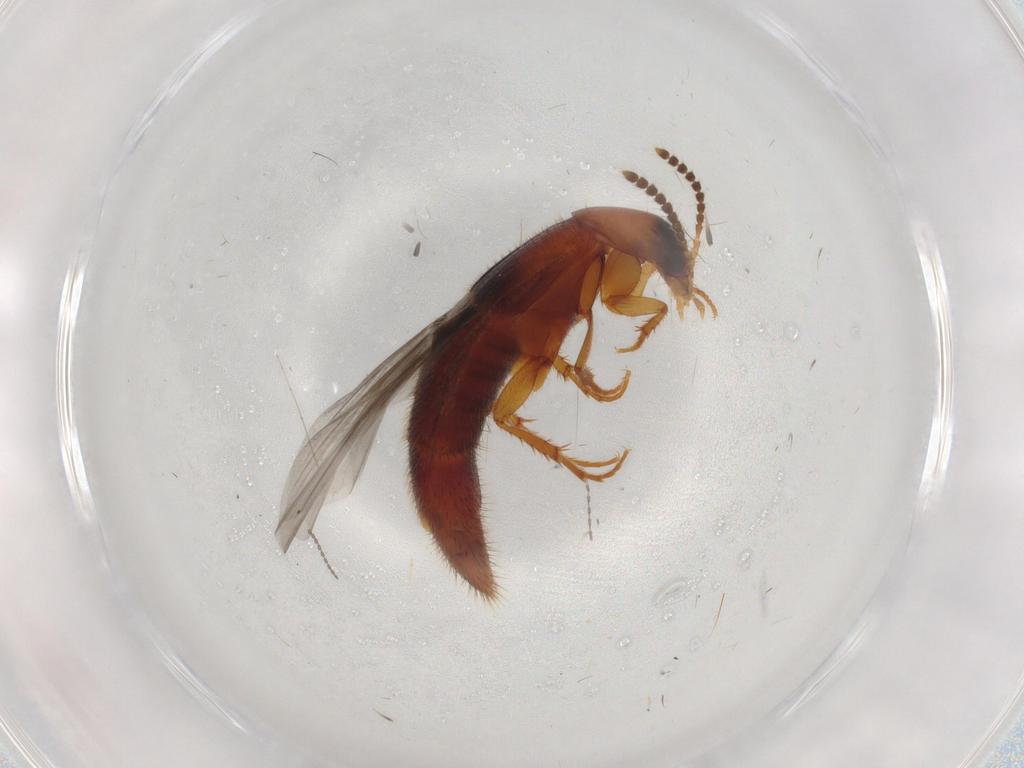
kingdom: Animalia
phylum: Arthropoda
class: Insecta
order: Coleoptera
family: Staphylinidae
